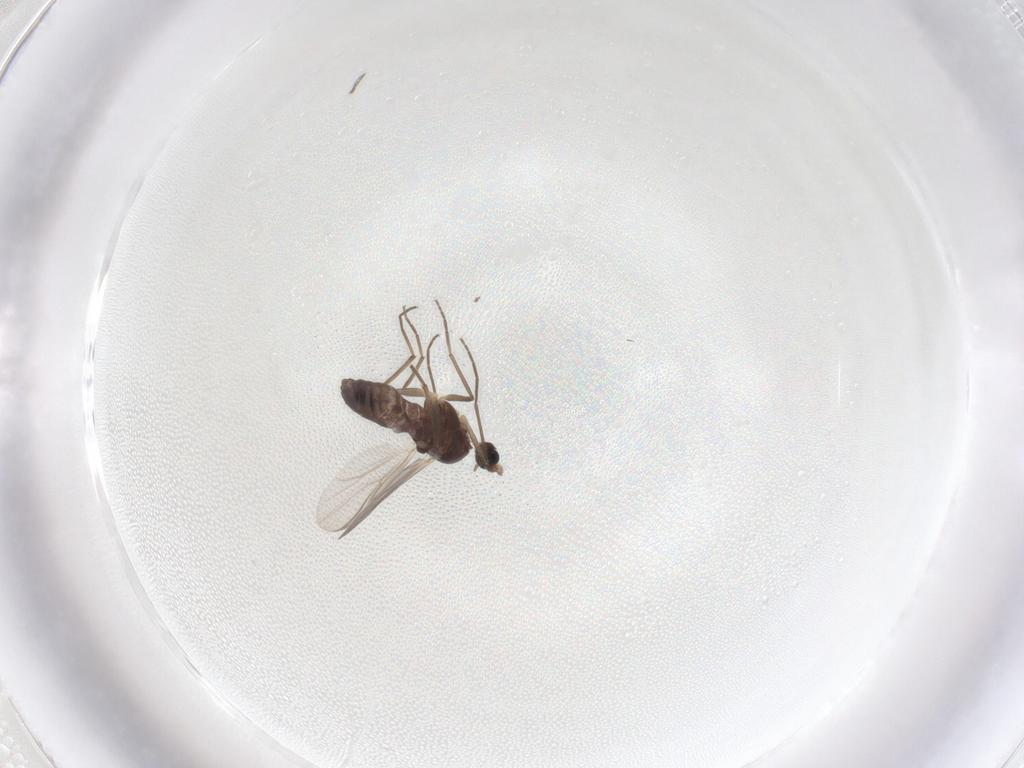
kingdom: Animalia
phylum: Arthropoda
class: Insecta
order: Diptera
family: Chironomidae
